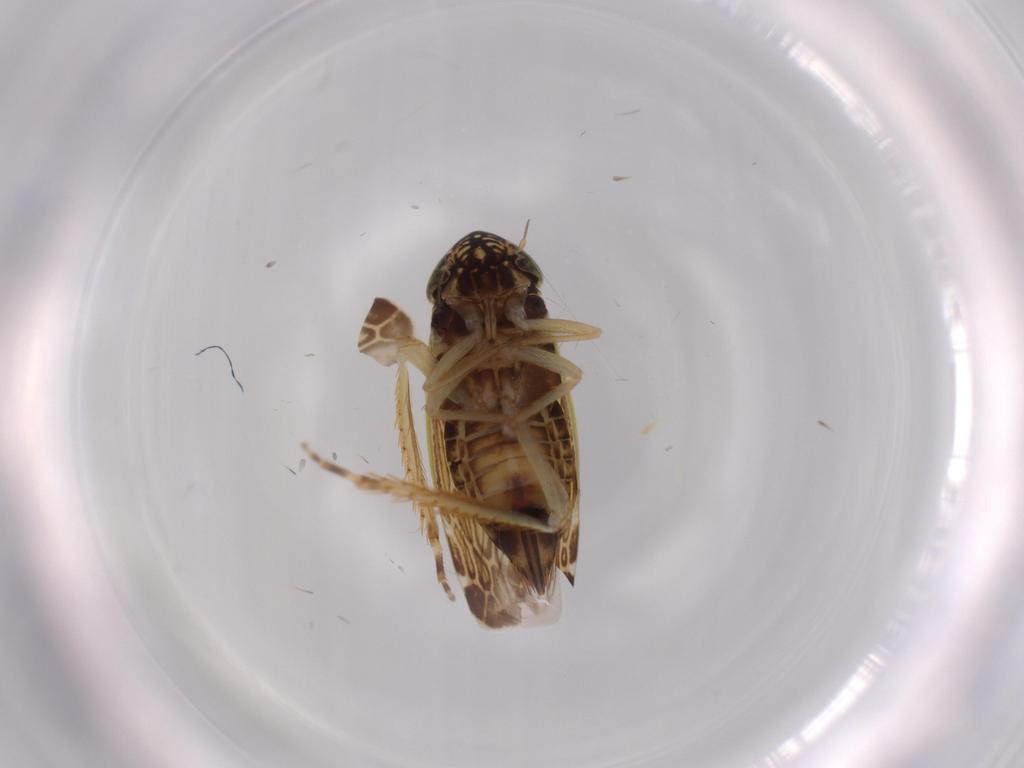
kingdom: Animalia
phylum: Arthropoda
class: Insecta
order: Hemiptera
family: Cicadellidae
